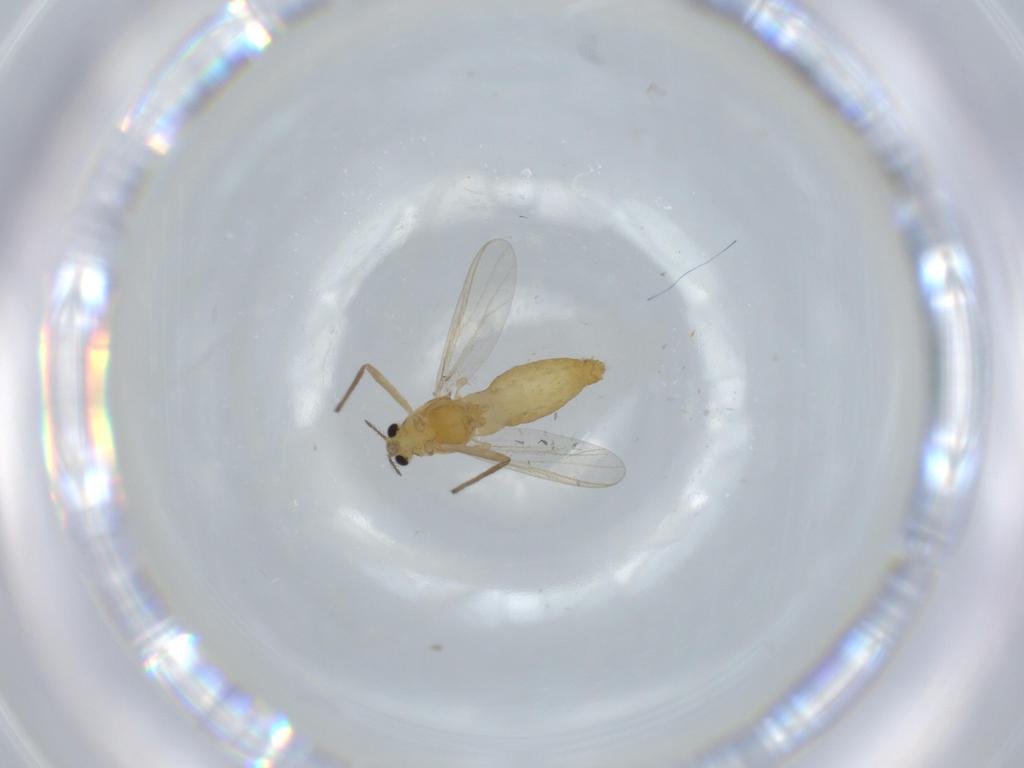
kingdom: Animalia
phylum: Arthropoda
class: Insecta
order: Diptera
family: Chironomidae
